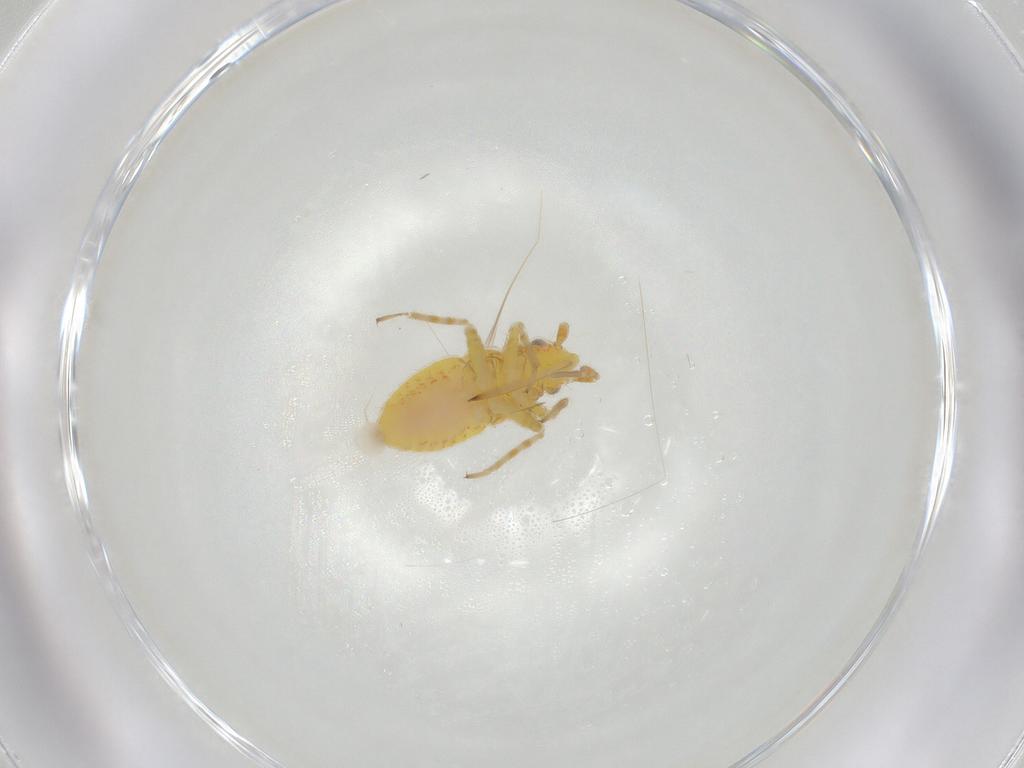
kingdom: Animalia
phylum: Arthropoda
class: Insecta
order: Hemiptera
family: Miridae
